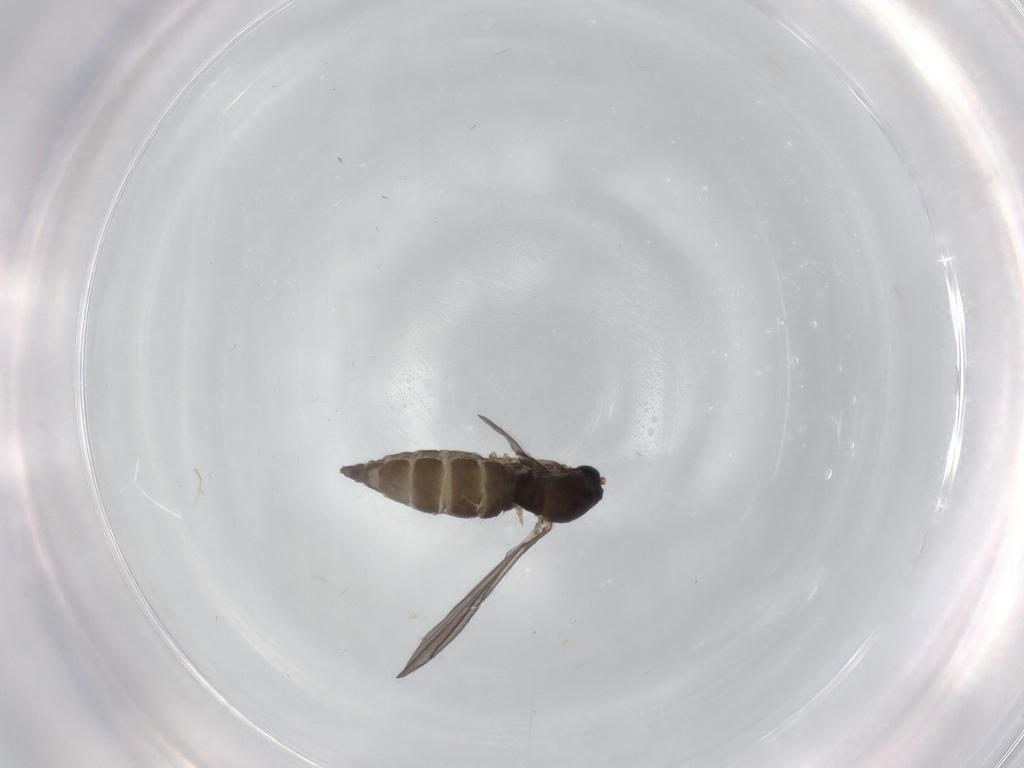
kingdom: Animalia
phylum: Arthropoda
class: Insecta
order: Diptera
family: Sciaridae
